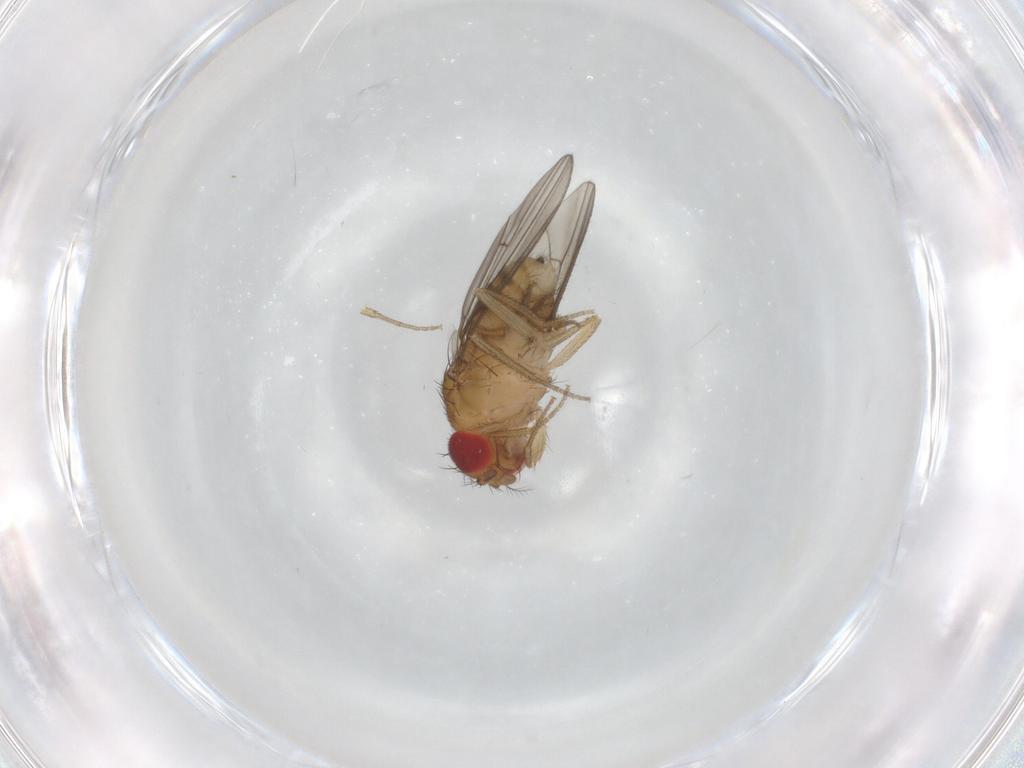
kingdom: Animalia
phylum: Arthropoda
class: Insecta
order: Diptera
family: Drosophilidae
